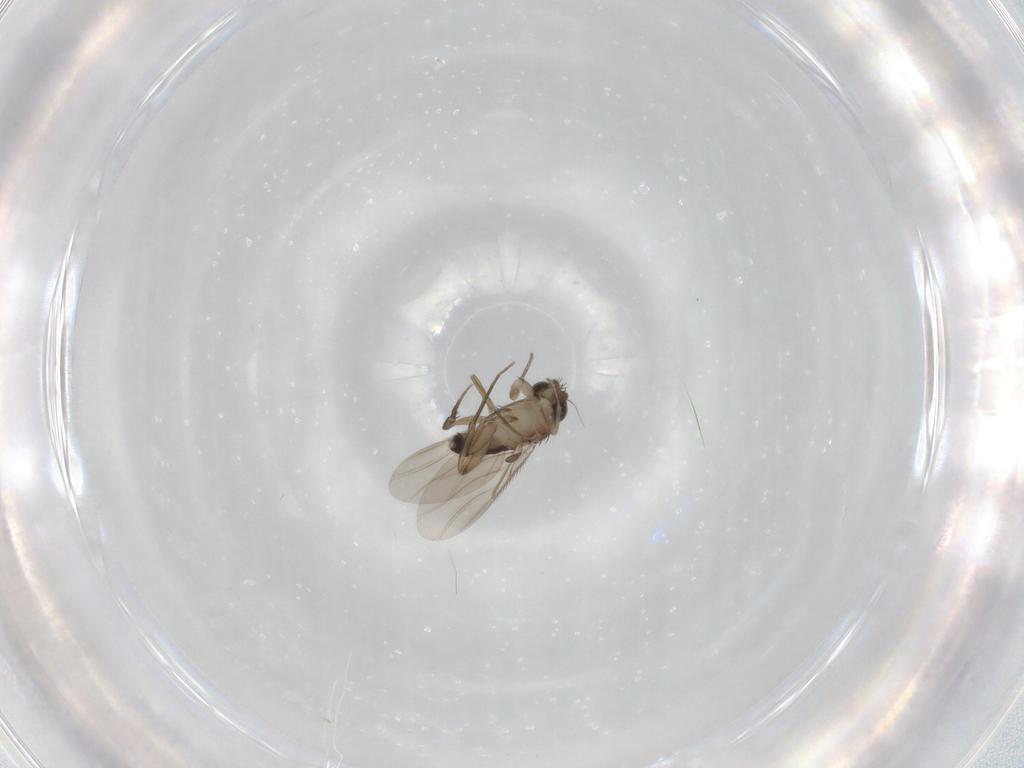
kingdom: Animalia
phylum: Arthropoda
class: Insecta
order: Diptera
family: Phoridae
